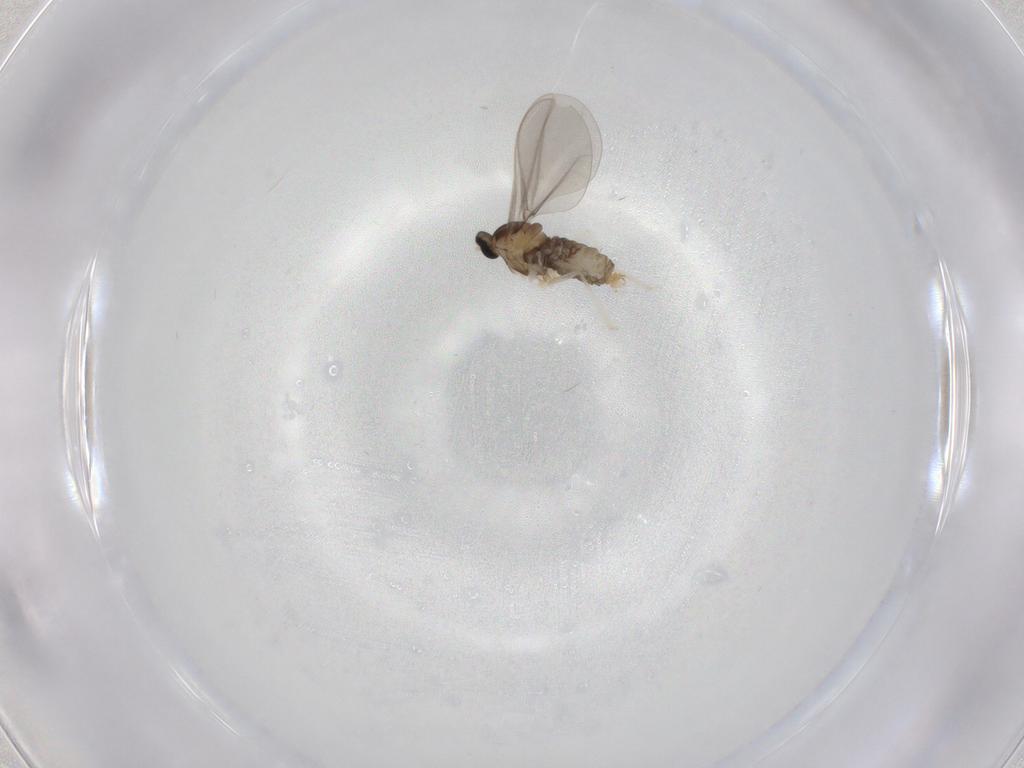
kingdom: Animalia
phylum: Arthropoda
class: Insecta
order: Diptera
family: Cecidomyiidae
